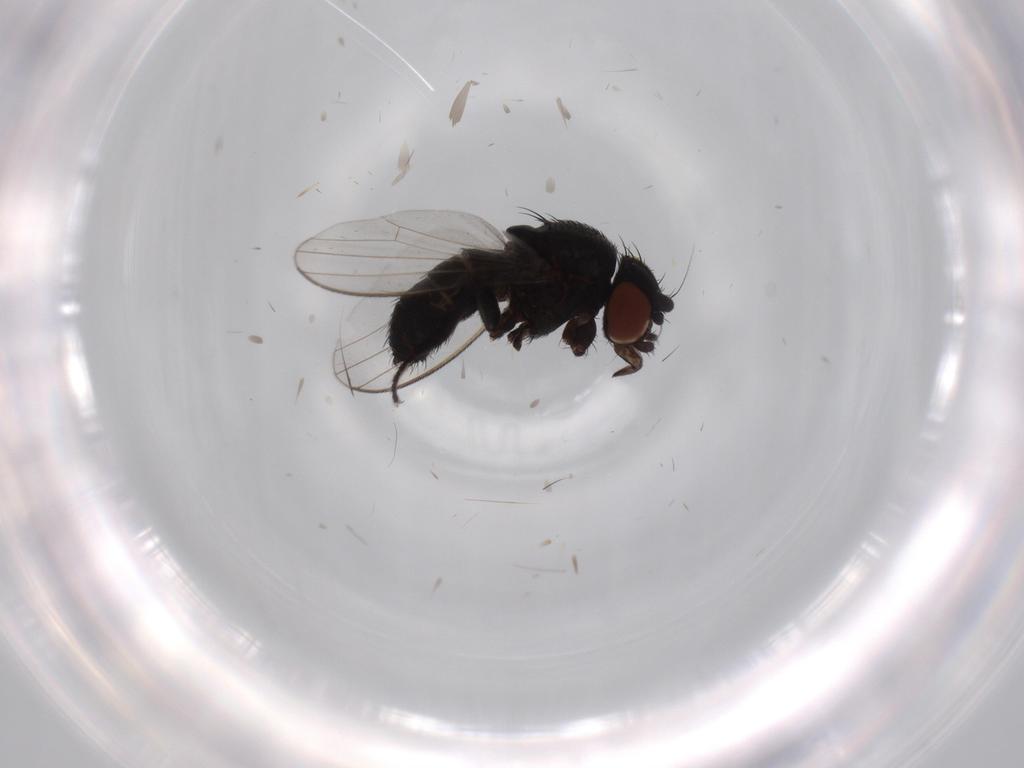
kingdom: Animalia
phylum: Arthropoda
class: Insecta
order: Diptera
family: Milichiidae
